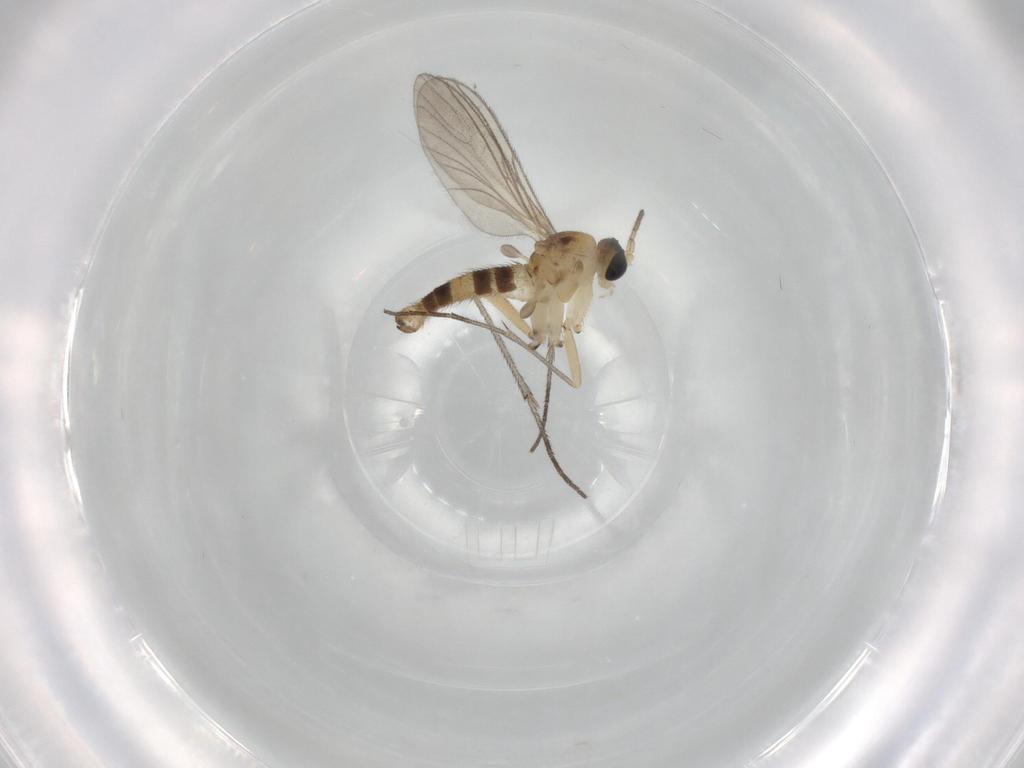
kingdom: Animalia
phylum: Arthropoda
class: Insecta
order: Diptera
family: Sciaridae
